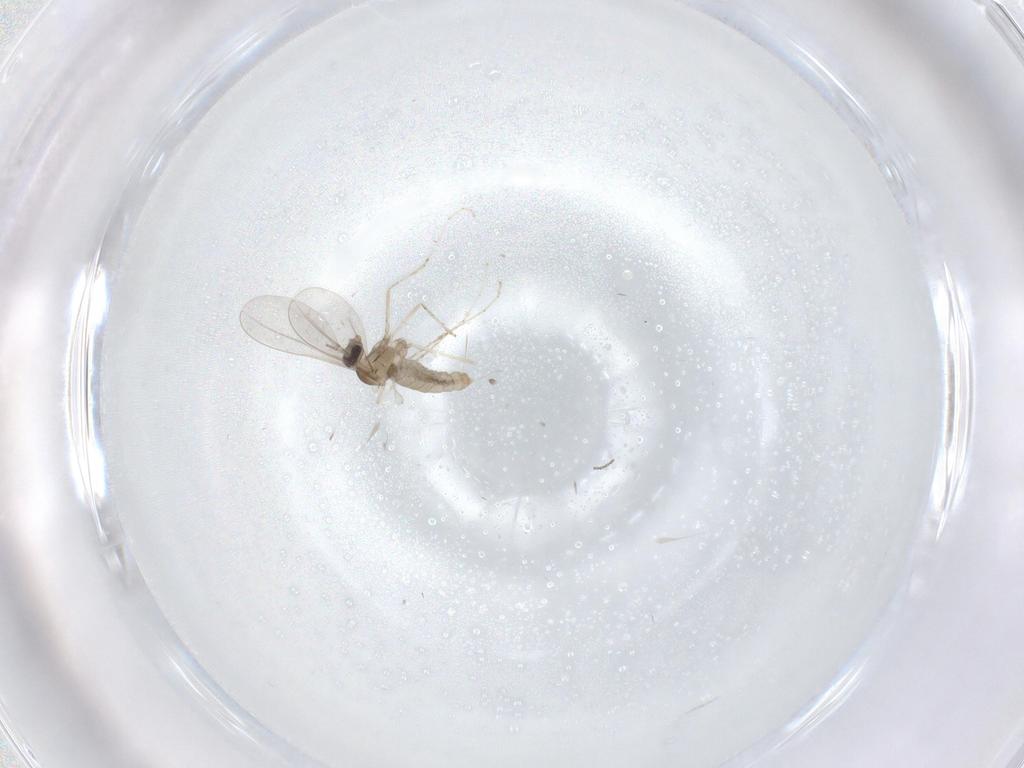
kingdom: Animalia
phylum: Arthropoda
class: Insecta
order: Diptera
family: Cecidomyiidae
